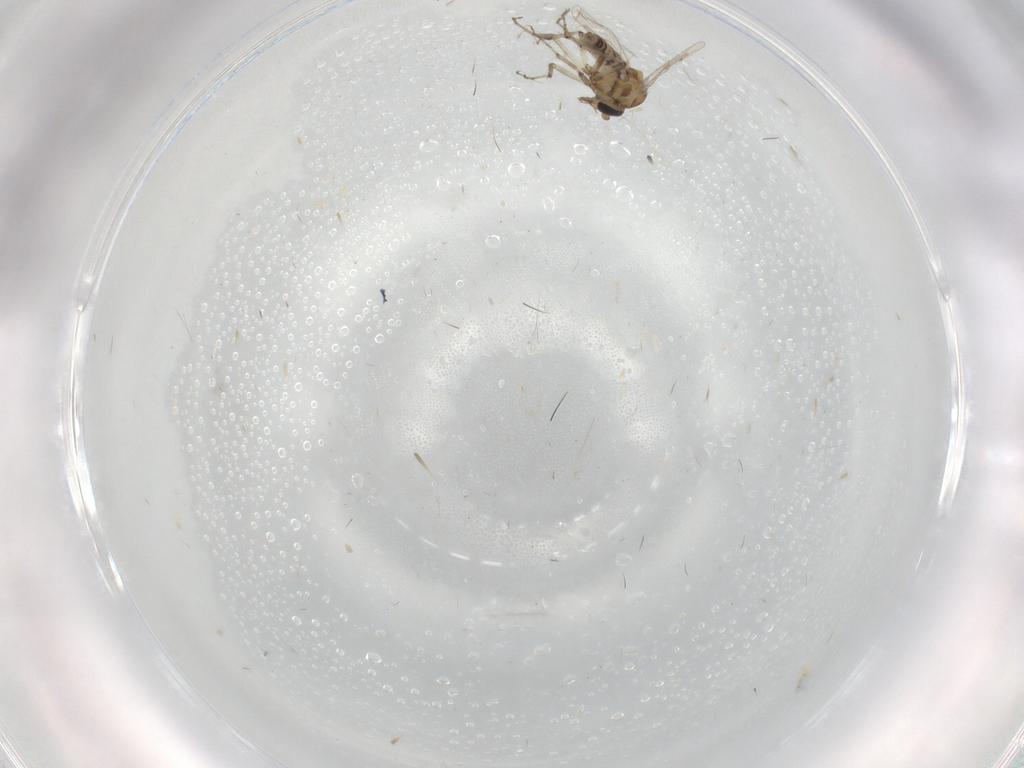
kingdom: Animalia
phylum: Arthropoda
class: Insecta
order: Diptera
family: Ceratopogonidae
